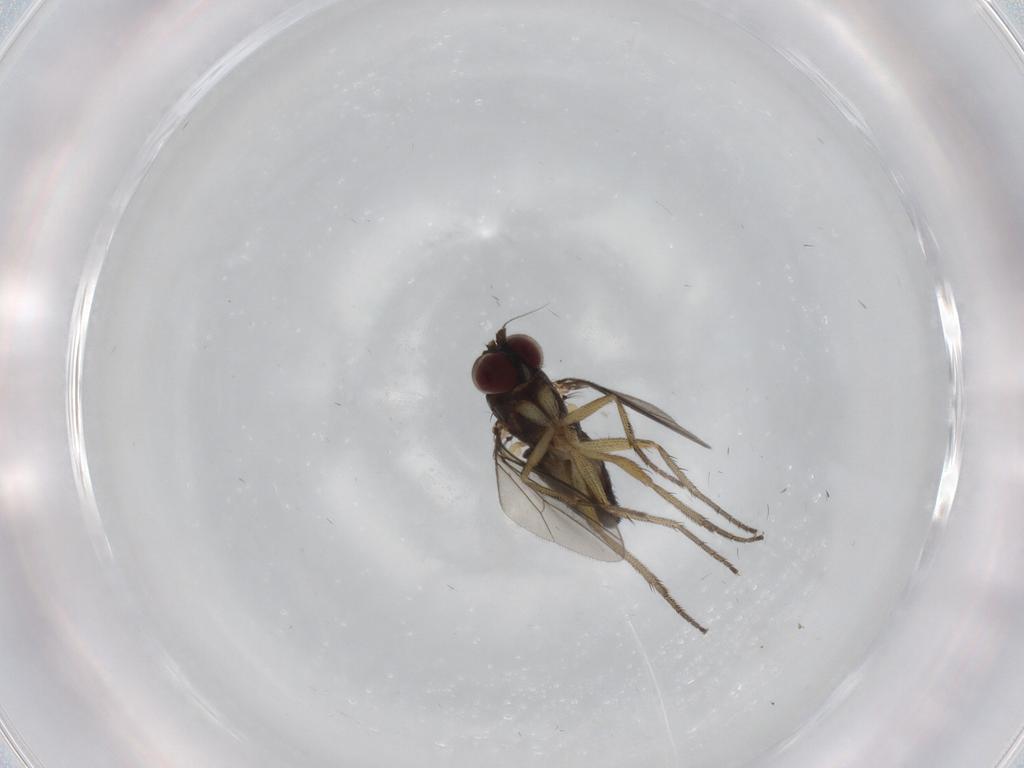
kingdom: Animalia
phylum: Arthropoda
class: Insecta
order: Diptera
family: Dolichopodidae
